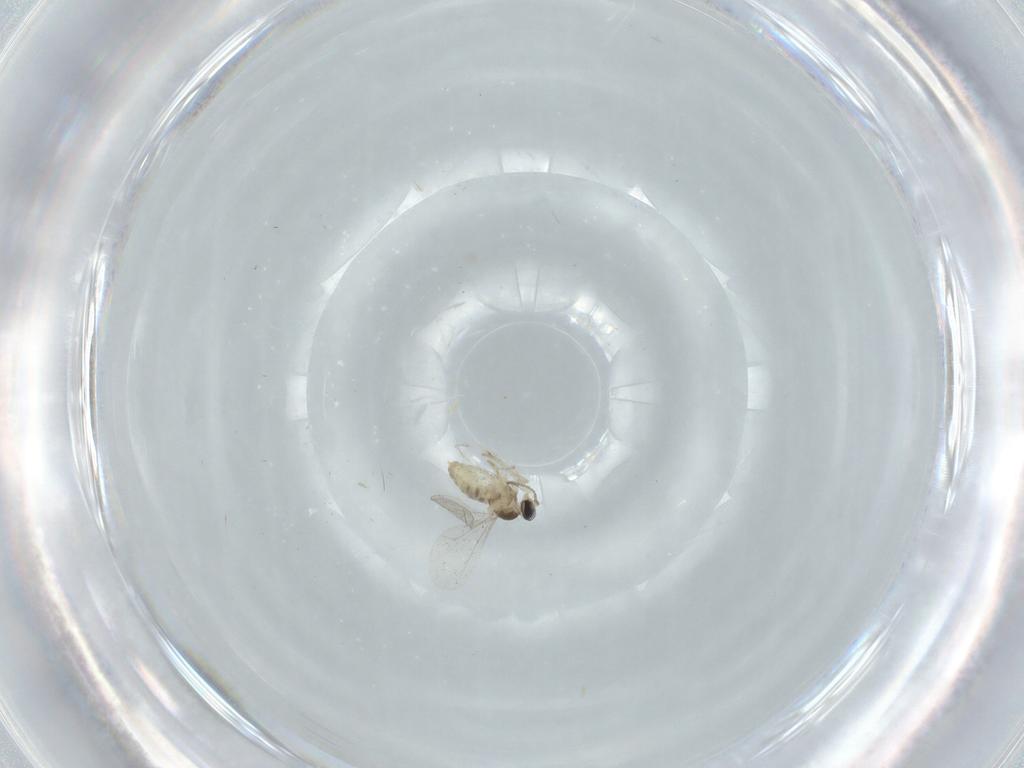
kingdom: Animalia
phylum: Arthropoda
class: Insecta
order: Diptera
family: Cecidomyiidae
